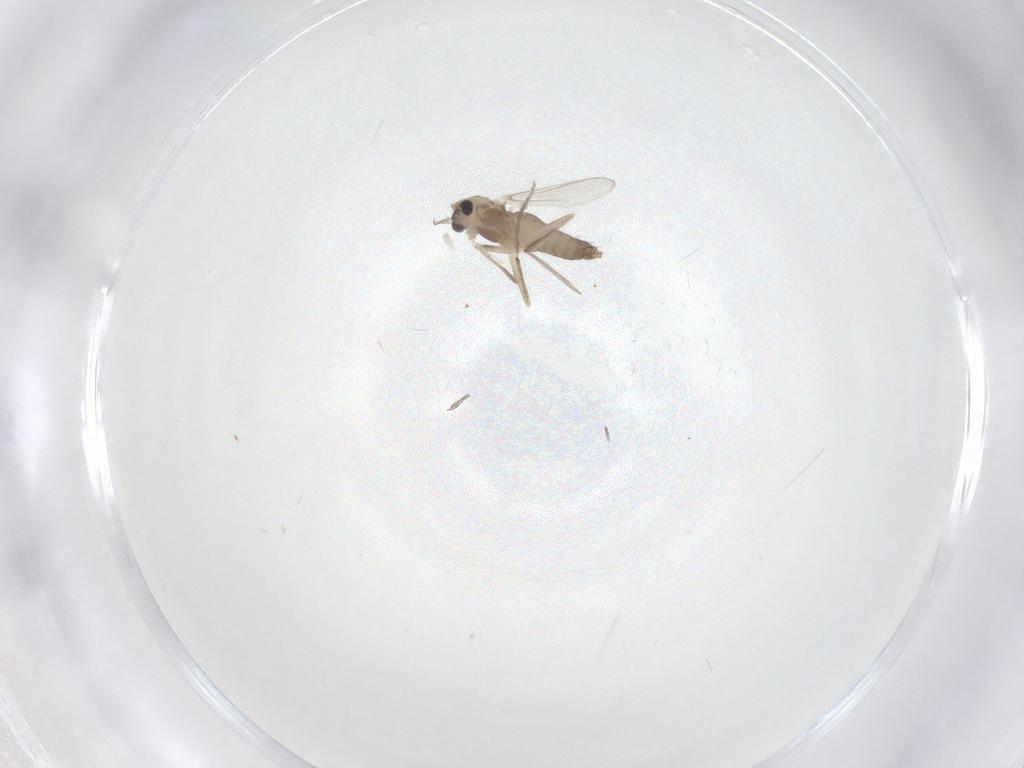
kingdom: Animalia
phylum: Arthropoda
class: Insecta
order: Diptera
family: Chironomidae
